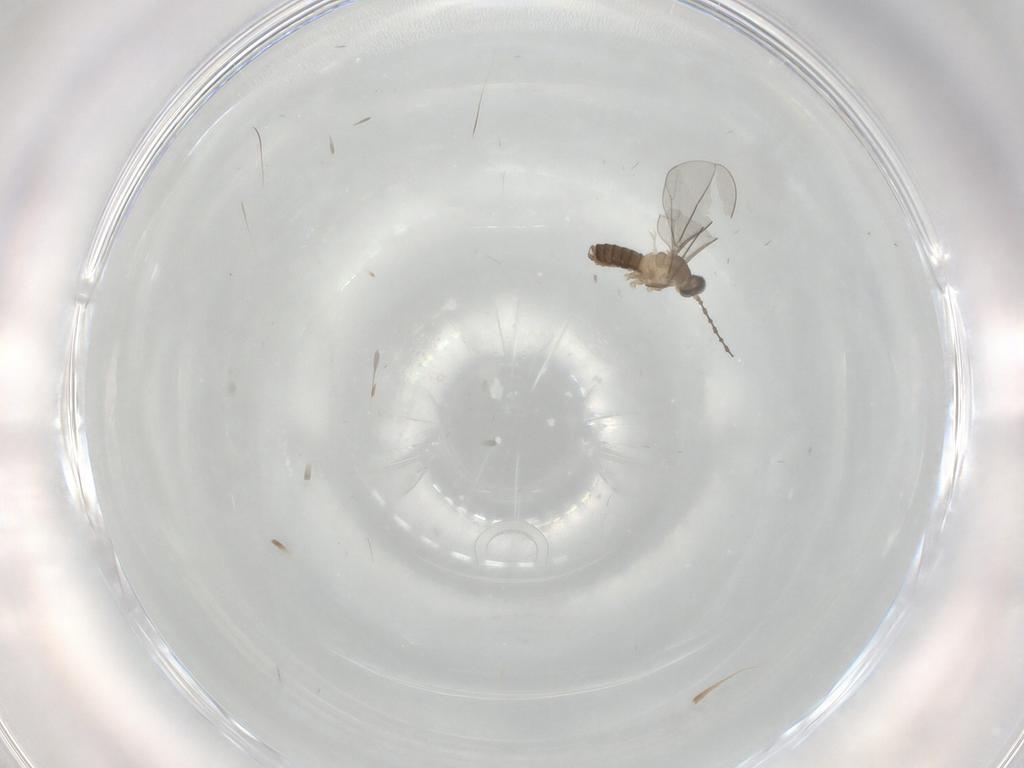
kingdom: Animalia
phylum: Arthropoda
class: Insecta
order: Diptera
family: Cecidomyiidae
